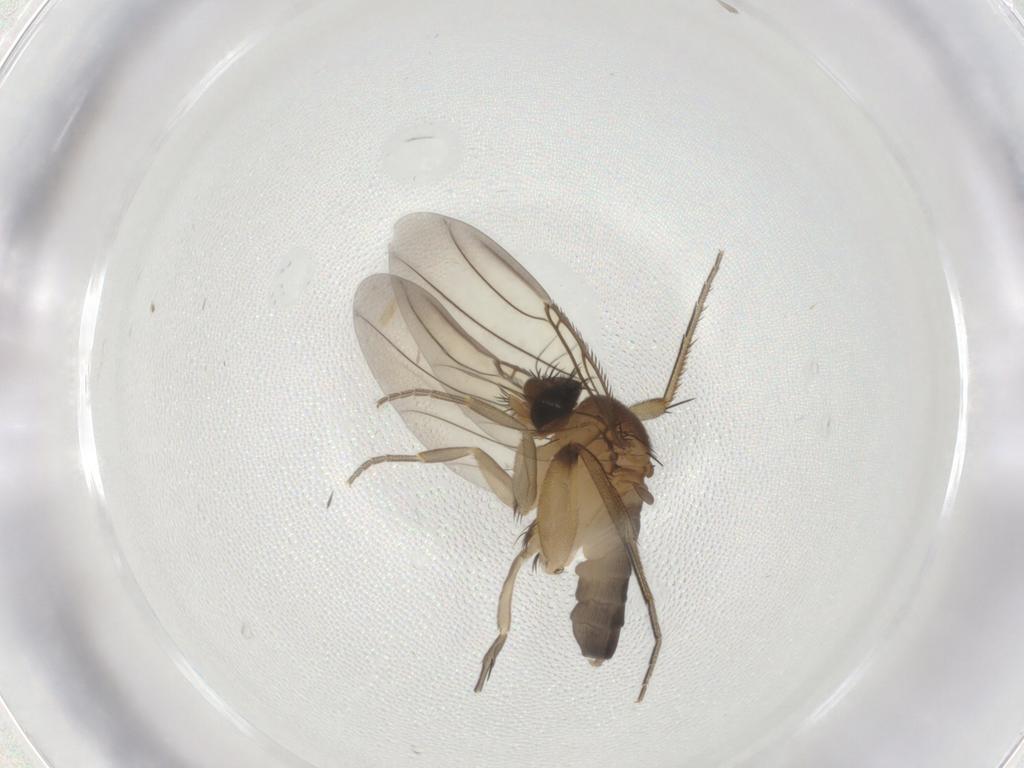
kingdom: Animalia
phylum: Arthropoda
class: Insecta
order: Diptera
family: Phoridae
